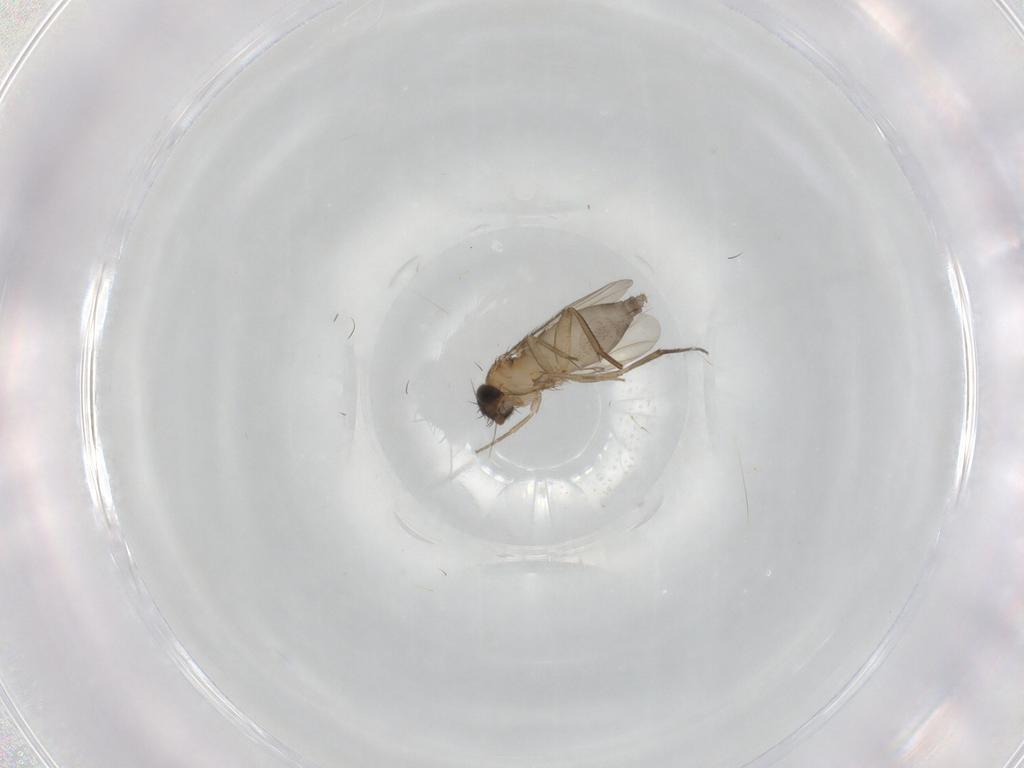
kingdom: Animalia
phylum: Arthropoda
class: Insecta
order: Diptera
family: Phoridae
